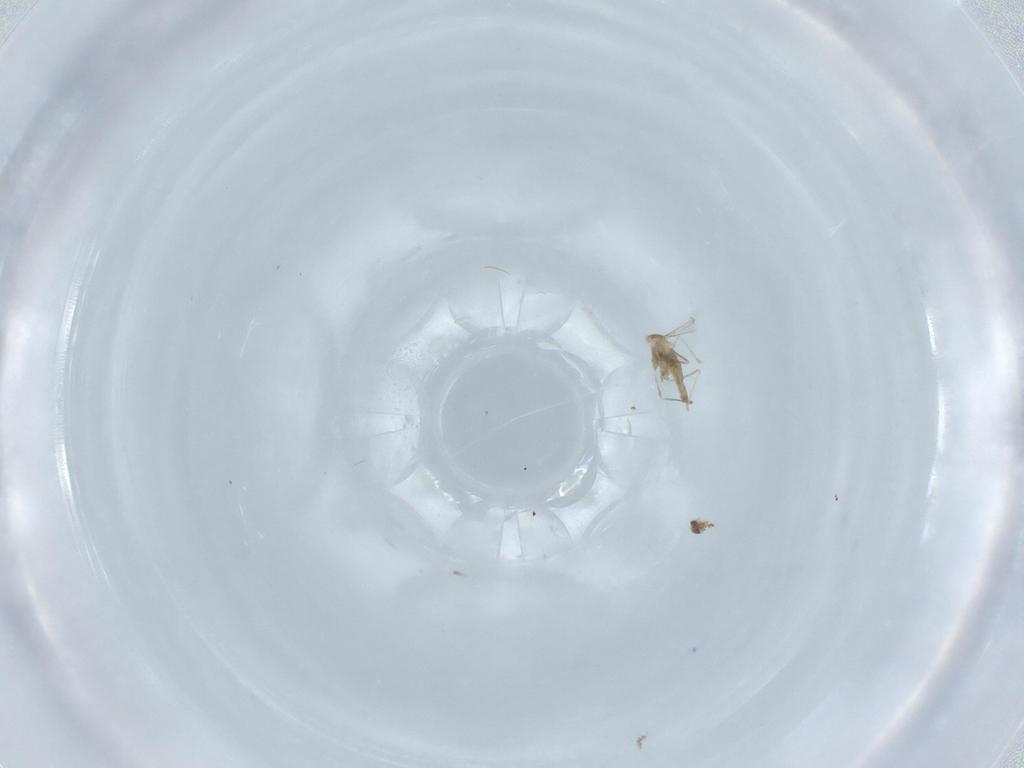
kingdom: Animalia
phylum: Arthropoda
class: Insecta
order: Diptera
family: Cecidomyiidae
